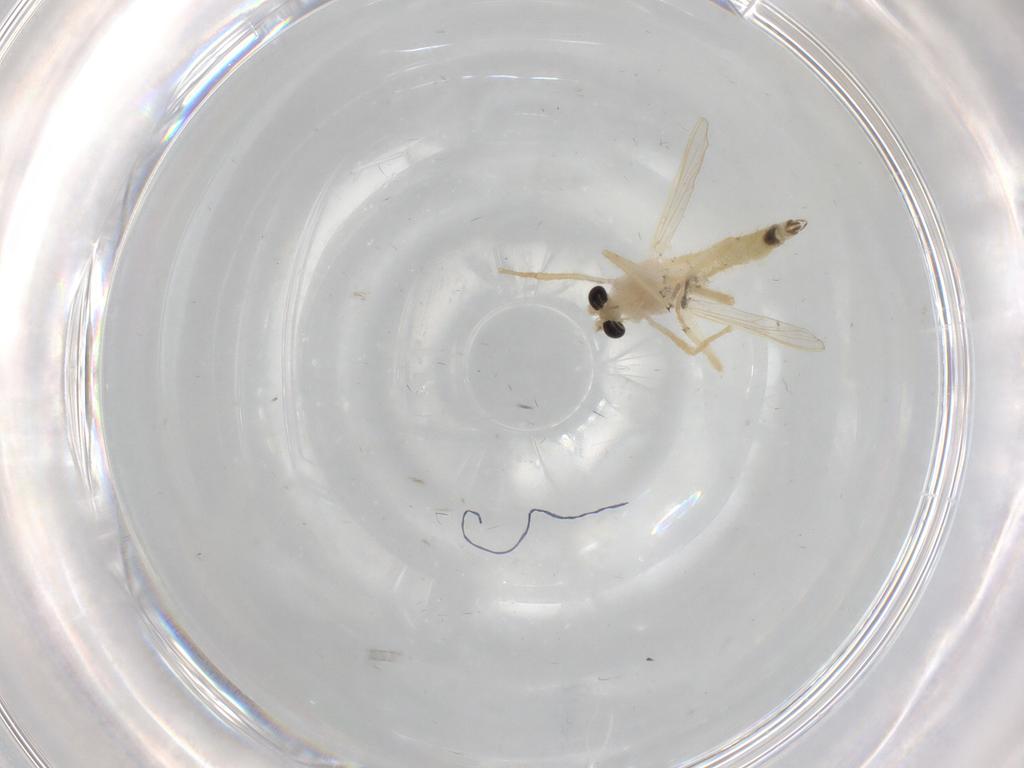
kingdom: Animalia
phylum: Arthropoda
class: Insecta
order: Diptera
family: Chironomidae
